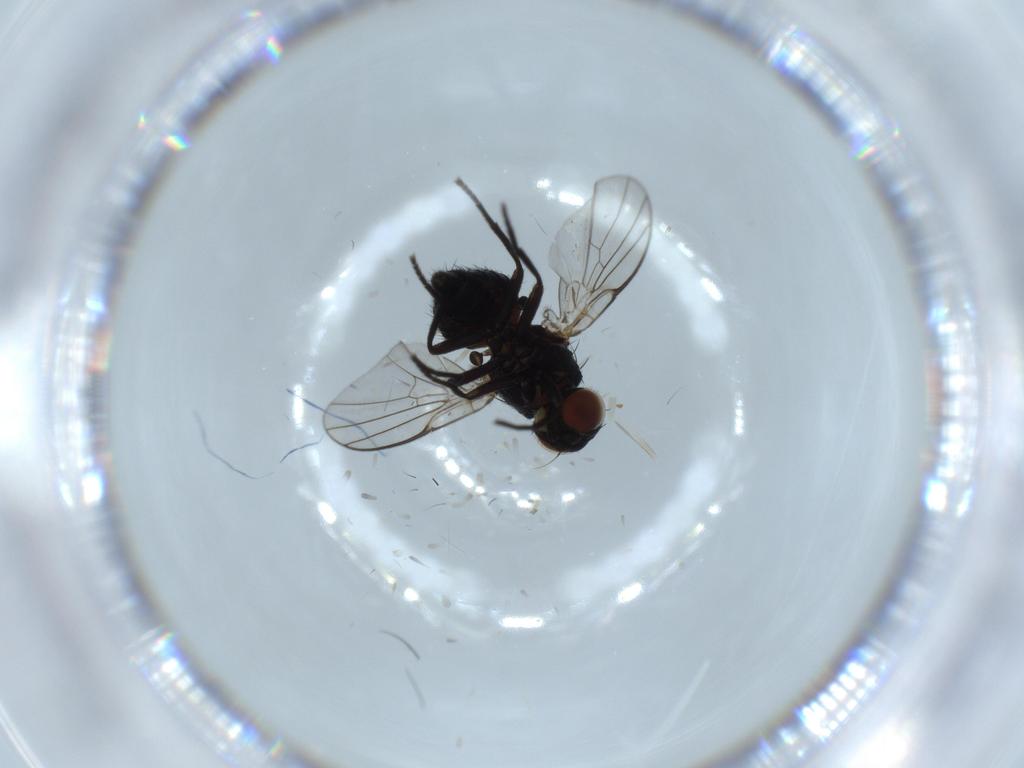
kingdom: Animalia
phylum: Arthropoda
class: Insecta
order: Diptera
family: Agromyzidae
